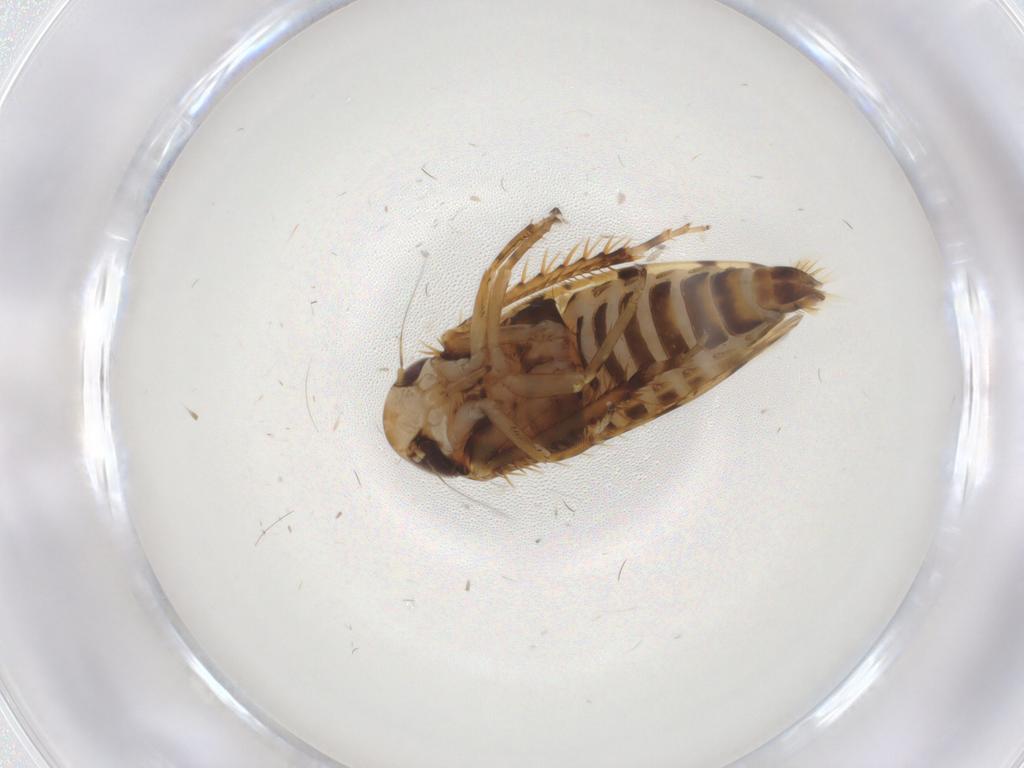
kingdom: Animalia
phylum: Arthropoda
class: Insecta
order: Hemiptera
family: Cicadellidae
